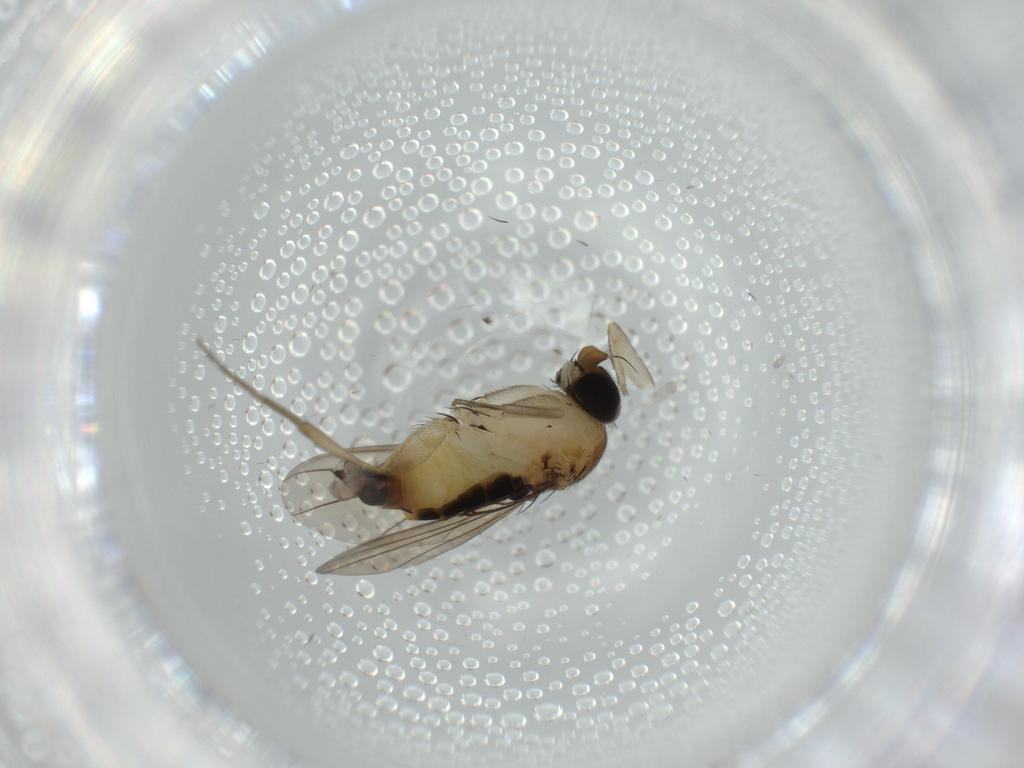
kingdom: Animalia
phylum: Arthropoda
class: Insecta
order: Diptera
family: Phoridae
